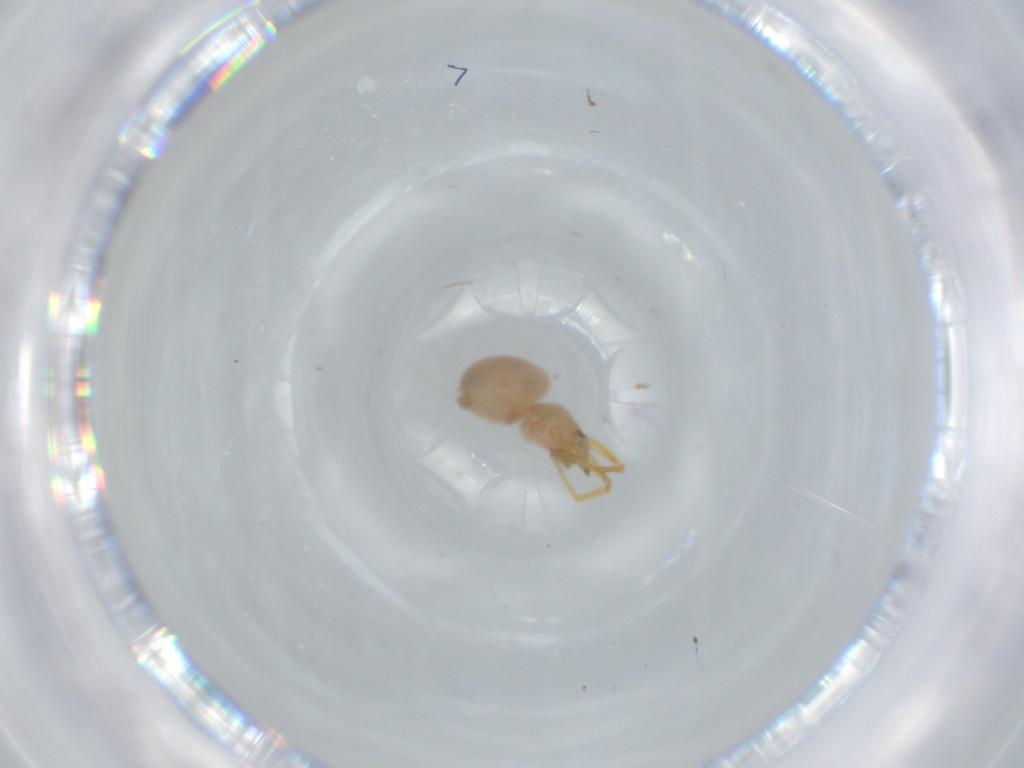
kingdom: Animalia
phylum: Arthropoda
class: Arachnida
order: Araneae
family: Oonopidae
